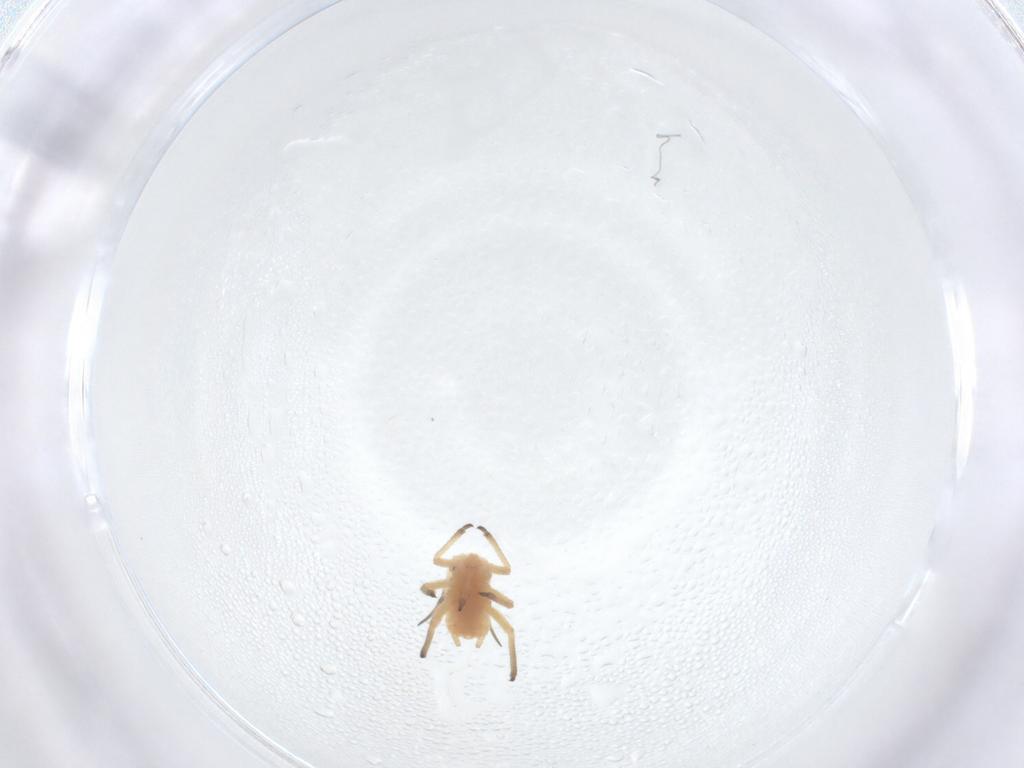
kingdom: Animalia
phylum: Arthropoda
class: Insecta
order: Hemiptera
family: Aphididae
